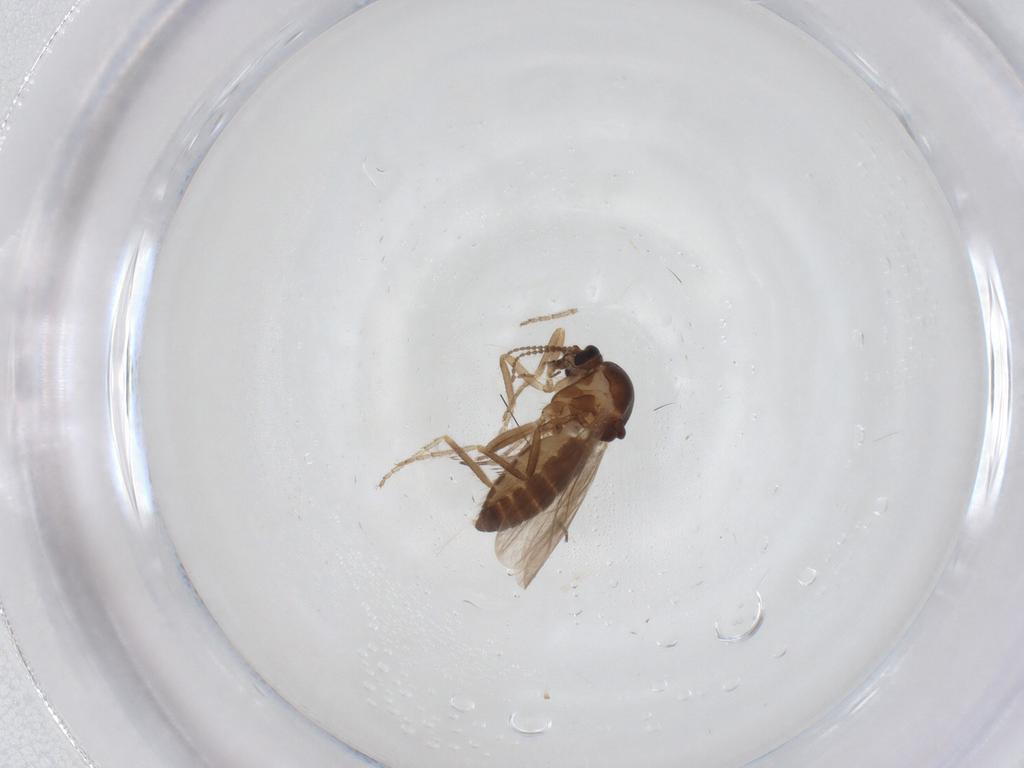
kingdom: Animalia
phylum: Arthropoda
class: Insecta
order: Diptera
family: Ceratopogonidae
